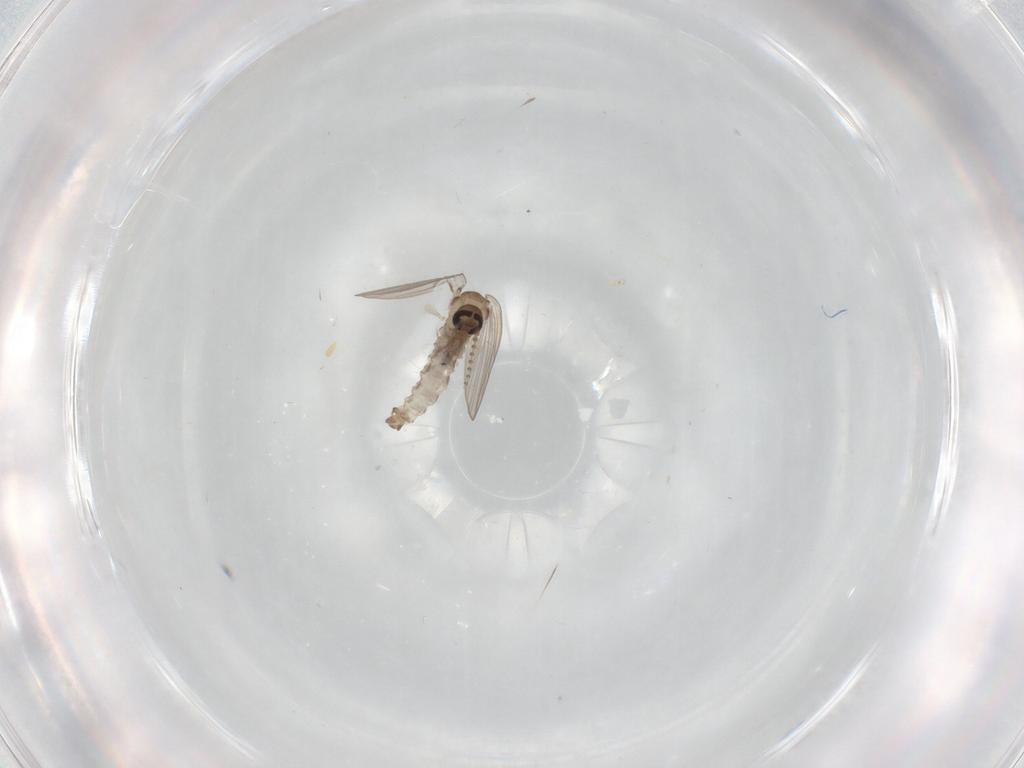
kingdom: Animalia
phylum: Arthropoda
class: Insecta
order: Diptera
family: Psychodidae
